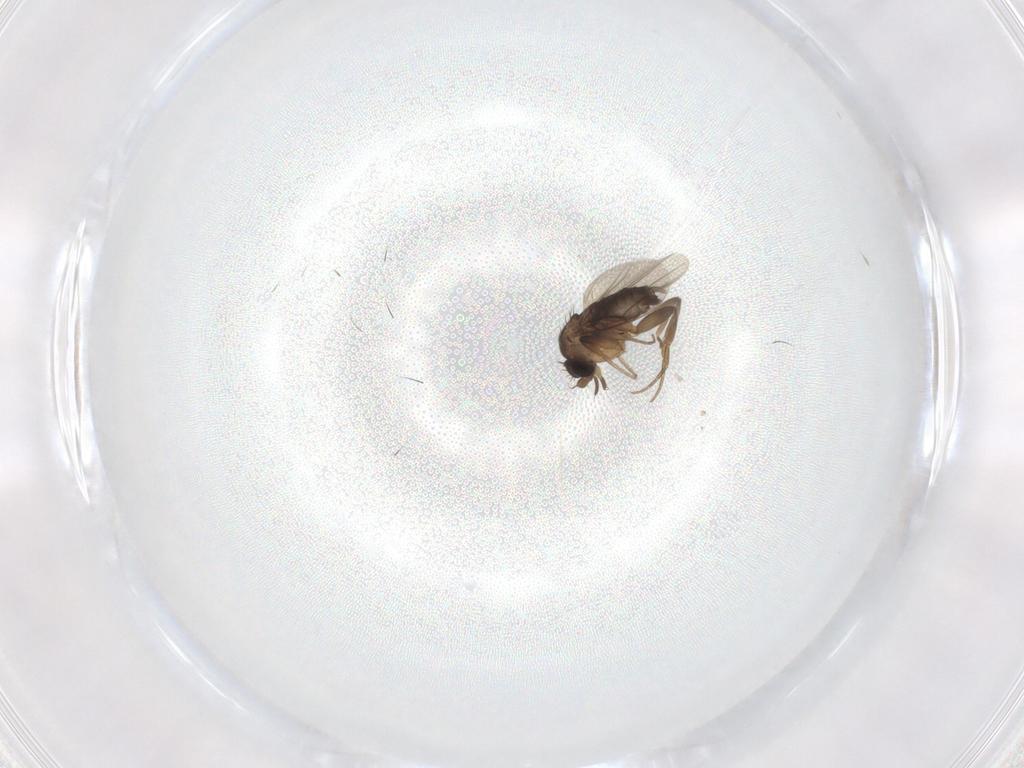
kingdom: Animalia
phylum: Arthropoda
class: Insecta
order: Diptera
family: Phoridae
